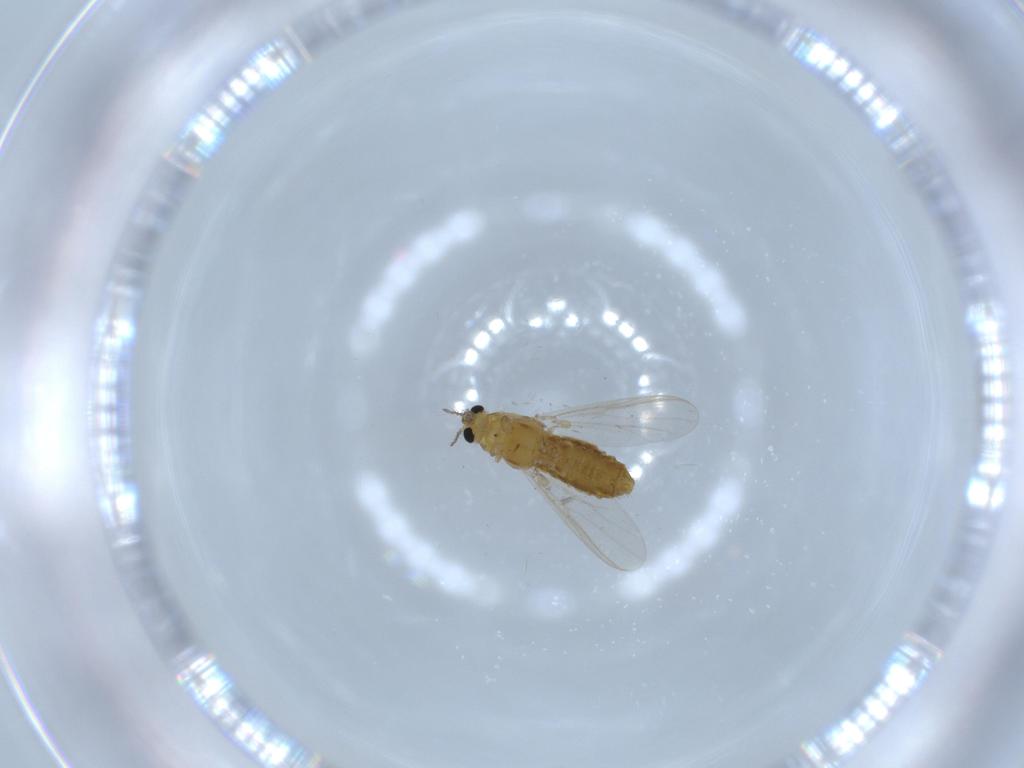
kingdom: Animalia
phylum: Arthropoda
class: Insecta
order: Diptera
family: Chironomidae
